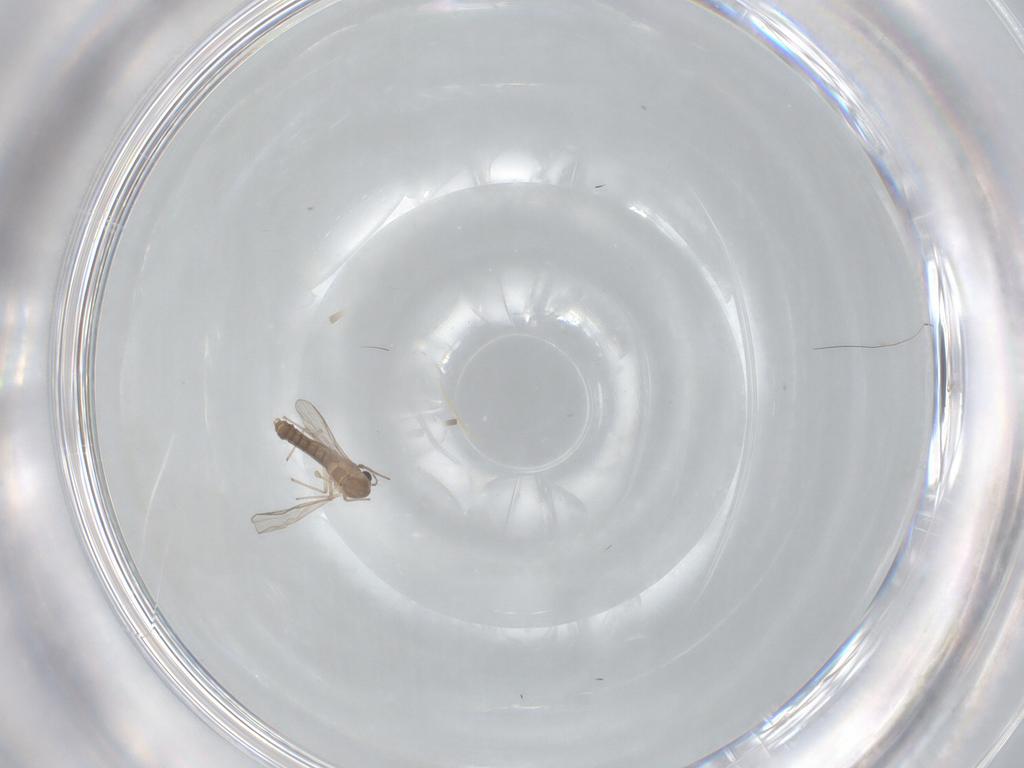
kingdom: Animalia
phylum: Arthropoda
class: Insecta
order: Diptera
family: Chironomidae
